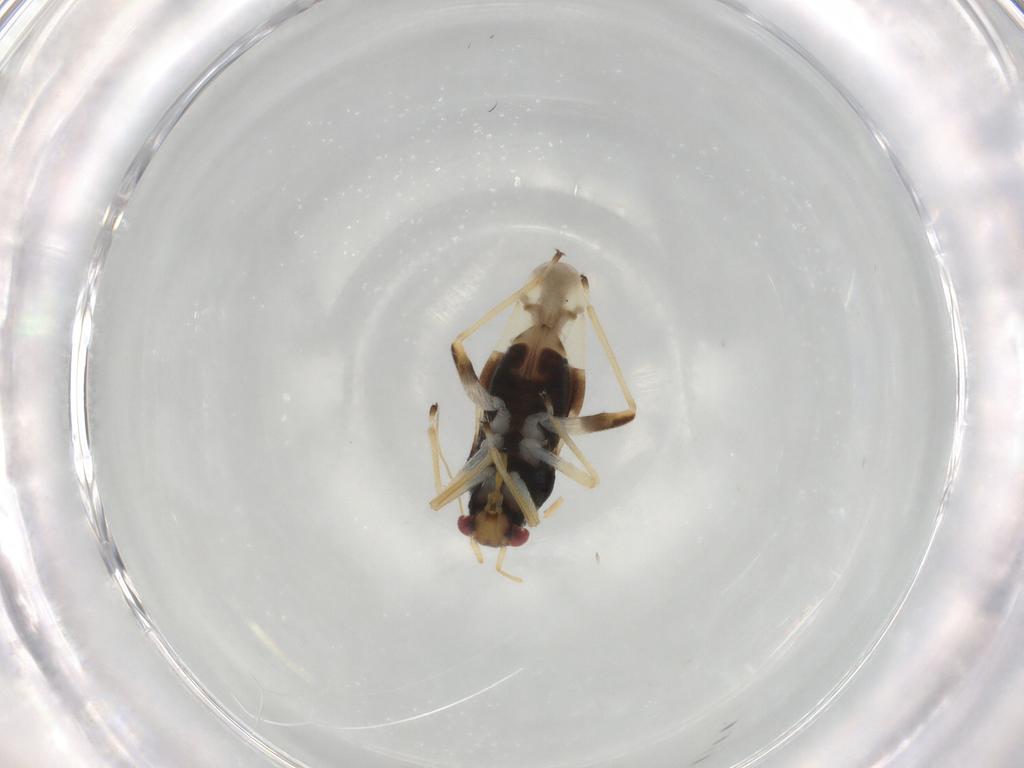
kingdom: Animalia
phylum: Arthropoda
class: Insecta
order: Hemiptera
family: Miridae
